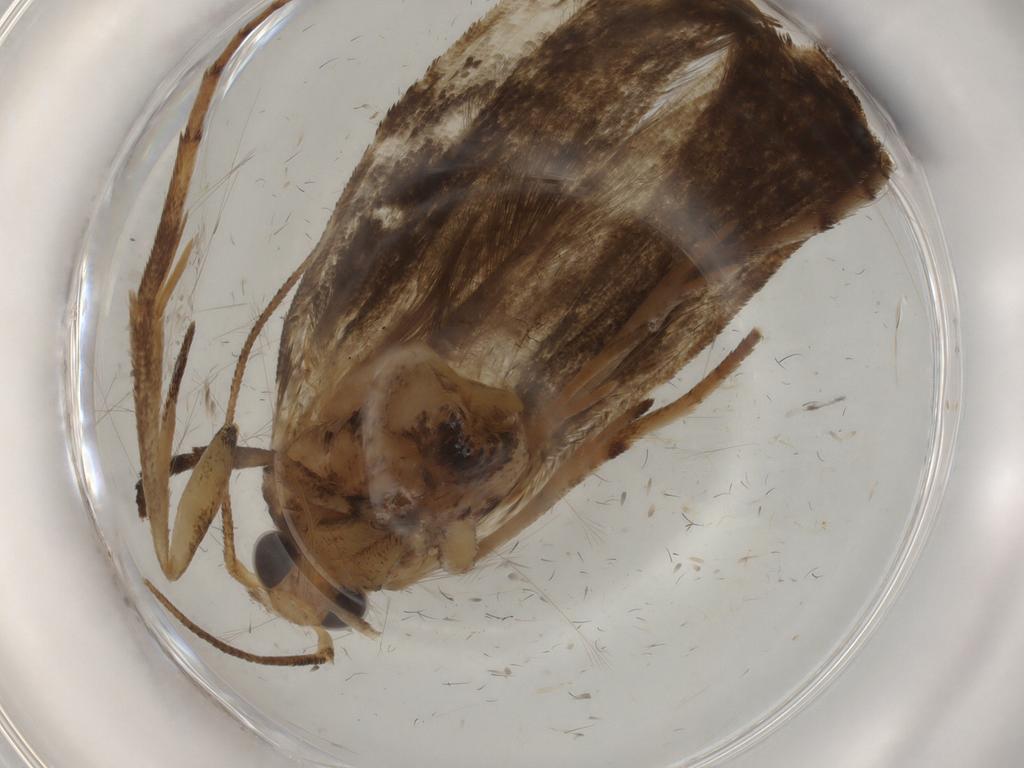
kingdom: Animalia
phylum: Arthropoda
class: Insecta
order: Lepidoptera
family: Yponomeutidae
